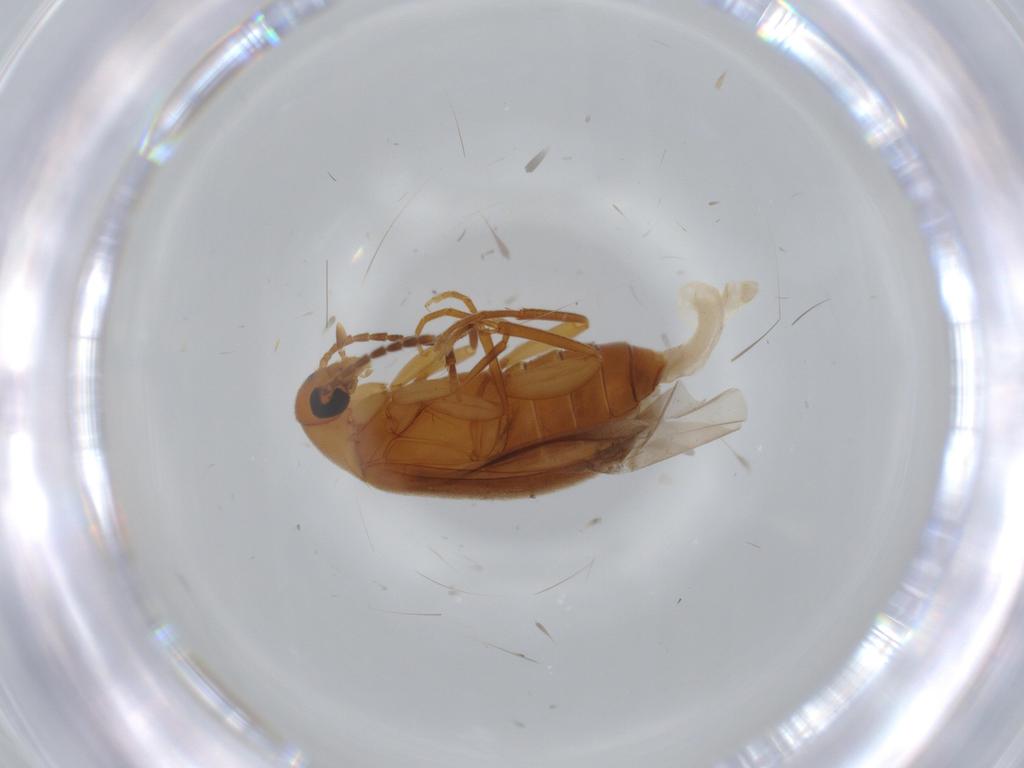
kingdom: Animalia
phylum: Arthropoda
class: Insecta
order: Coleoptera
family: Scraptiidae
